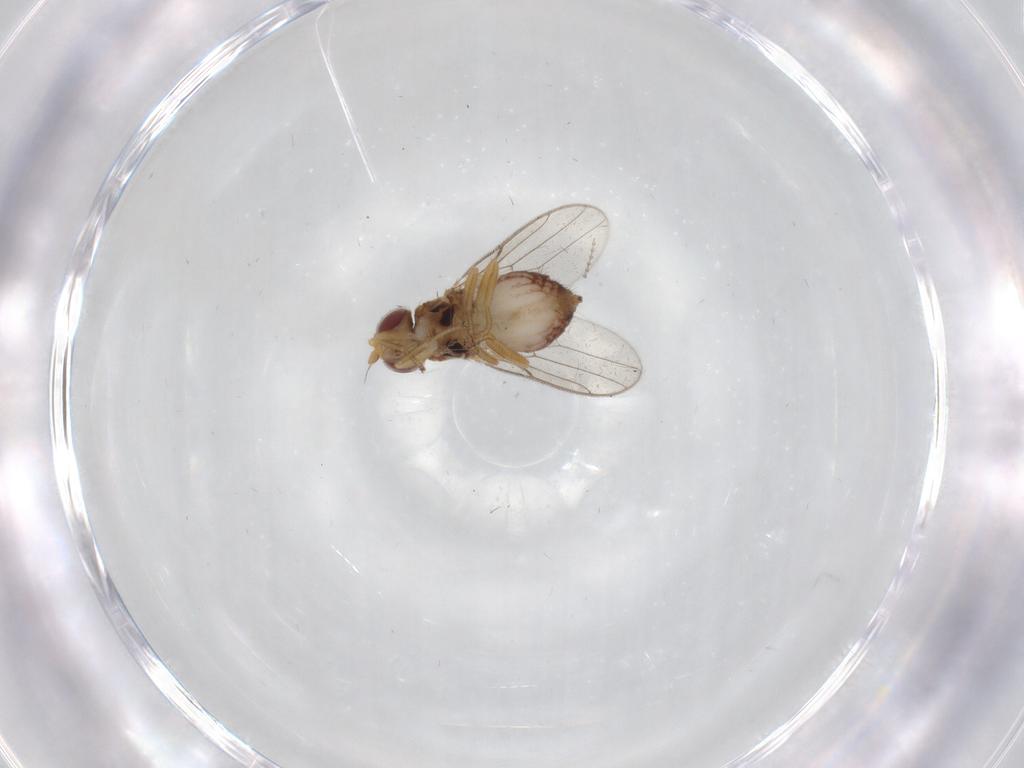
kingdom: Animalia
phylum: Arthropoda
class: Insecta
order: Diptera
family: Chloropidae
